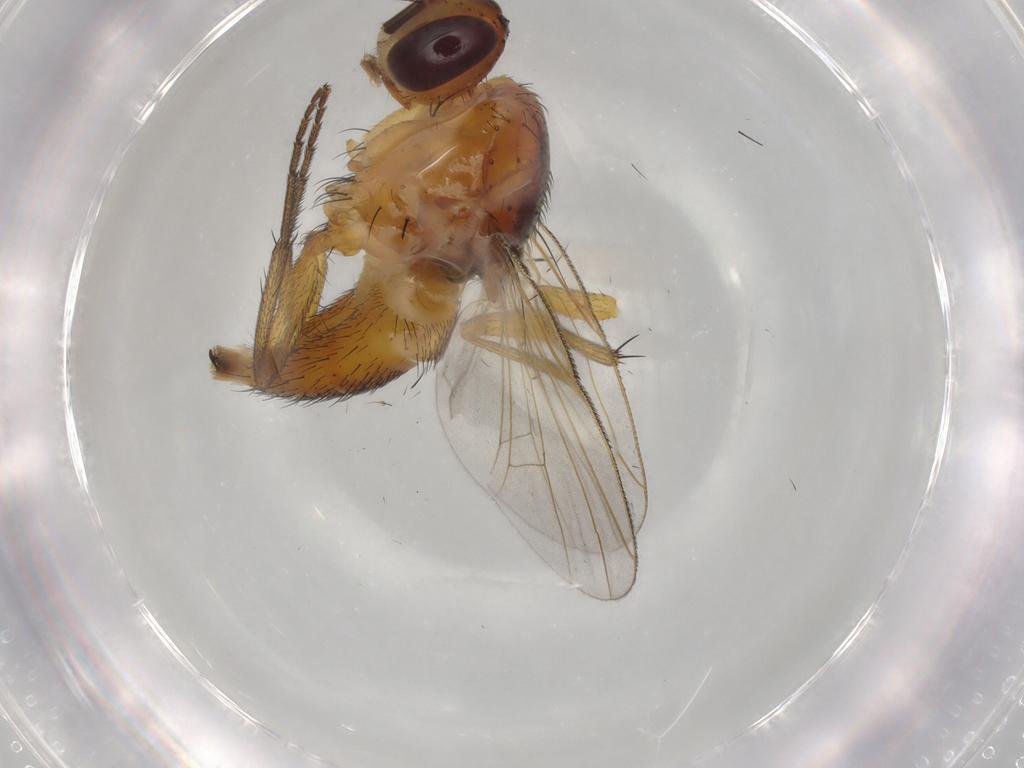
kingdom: Animalia
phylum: Arthropoda
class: Insecta
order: Diptera
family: Muscidae
